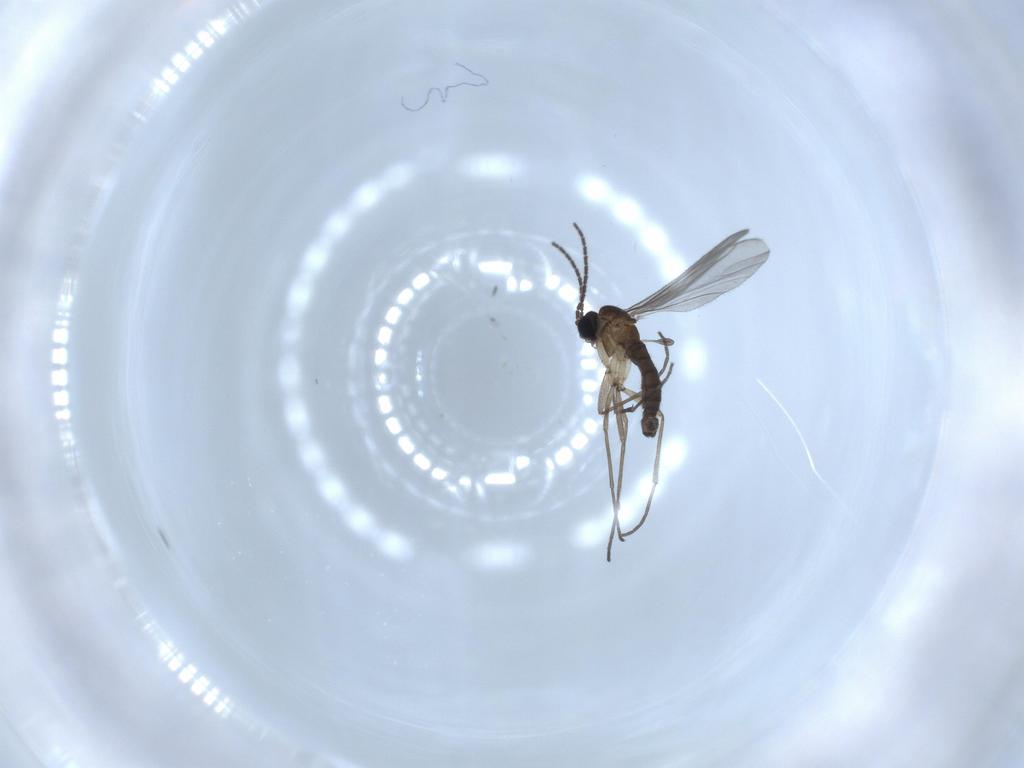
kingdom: Animalia
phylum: Arthropoda
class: Insecta
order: Diptera
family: Sciaridae
